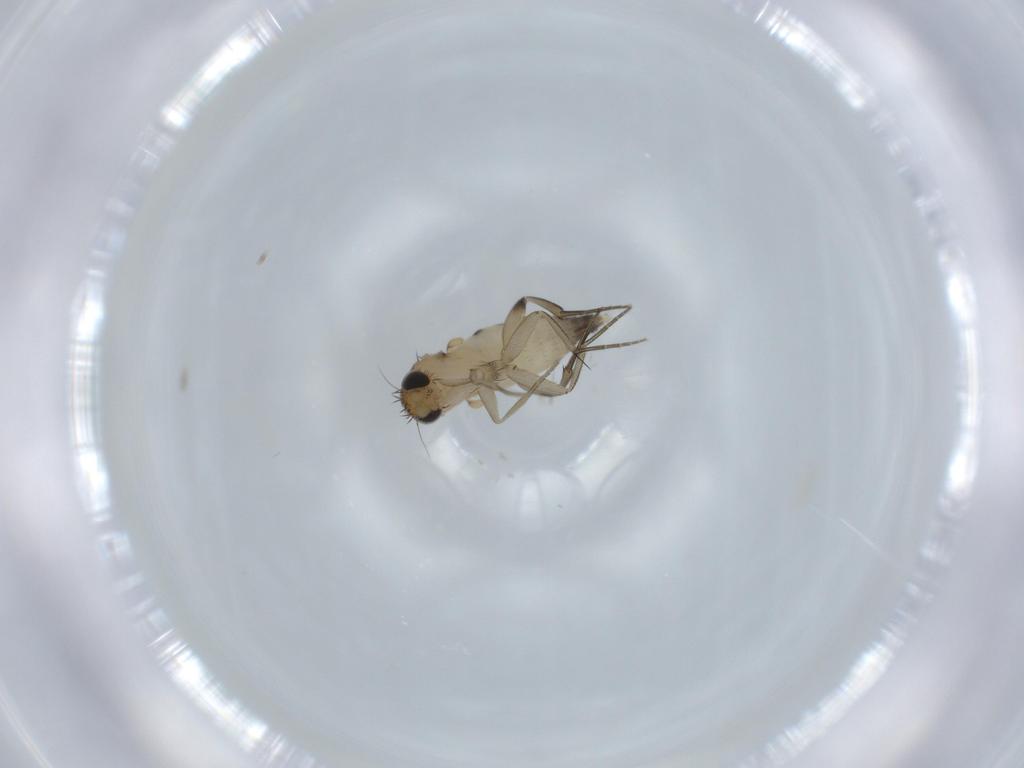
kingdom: Animalia
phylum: Arthropoda
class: Insecta
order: Diptera
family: Phoridae
